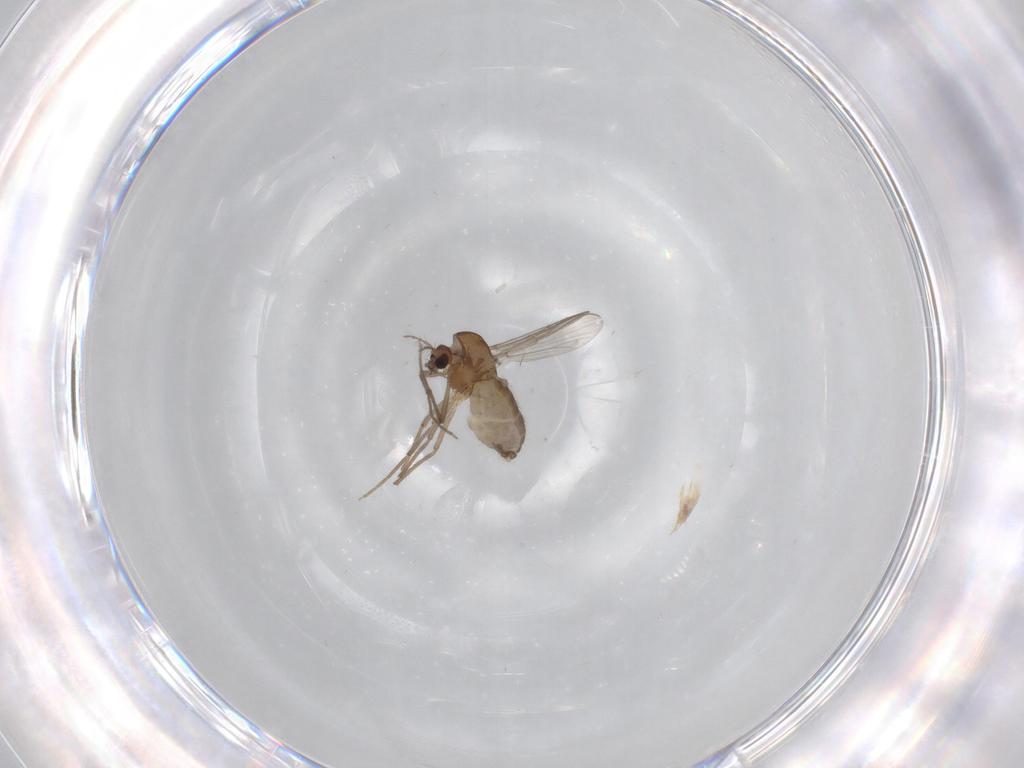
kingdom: Animalia
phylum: Arthropoda
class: Insecta
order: Diptera
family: Chironomidae
